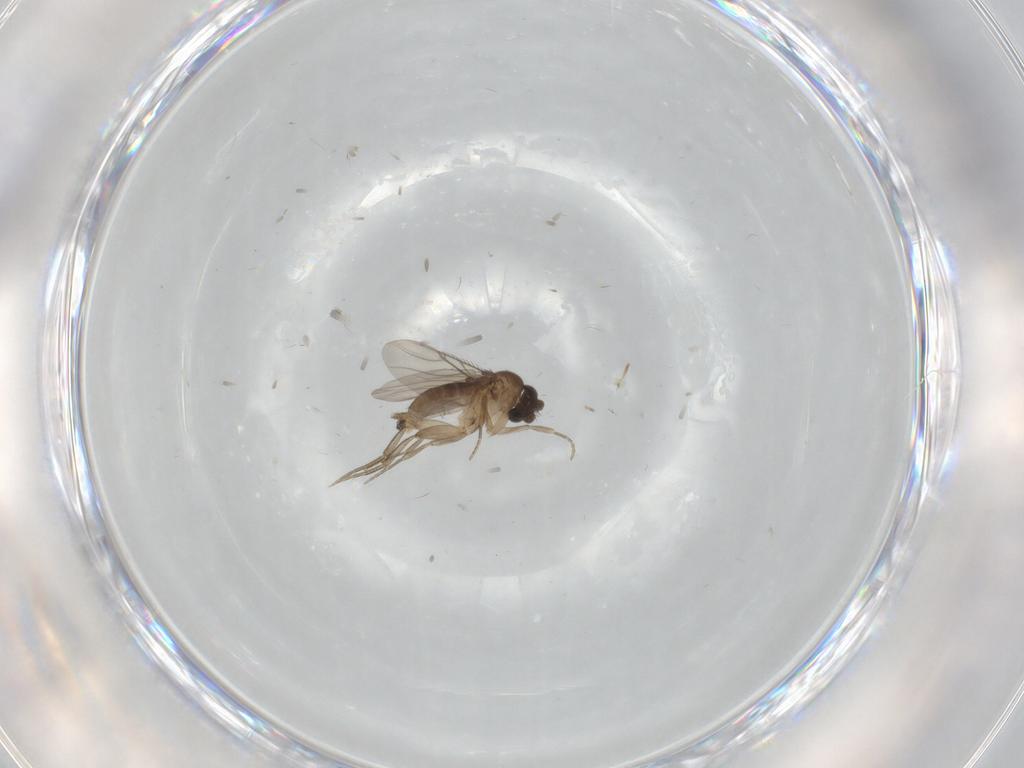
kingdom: Animalia
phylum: Arthropoda
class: Insecta
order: Diptera
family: Phoridae
